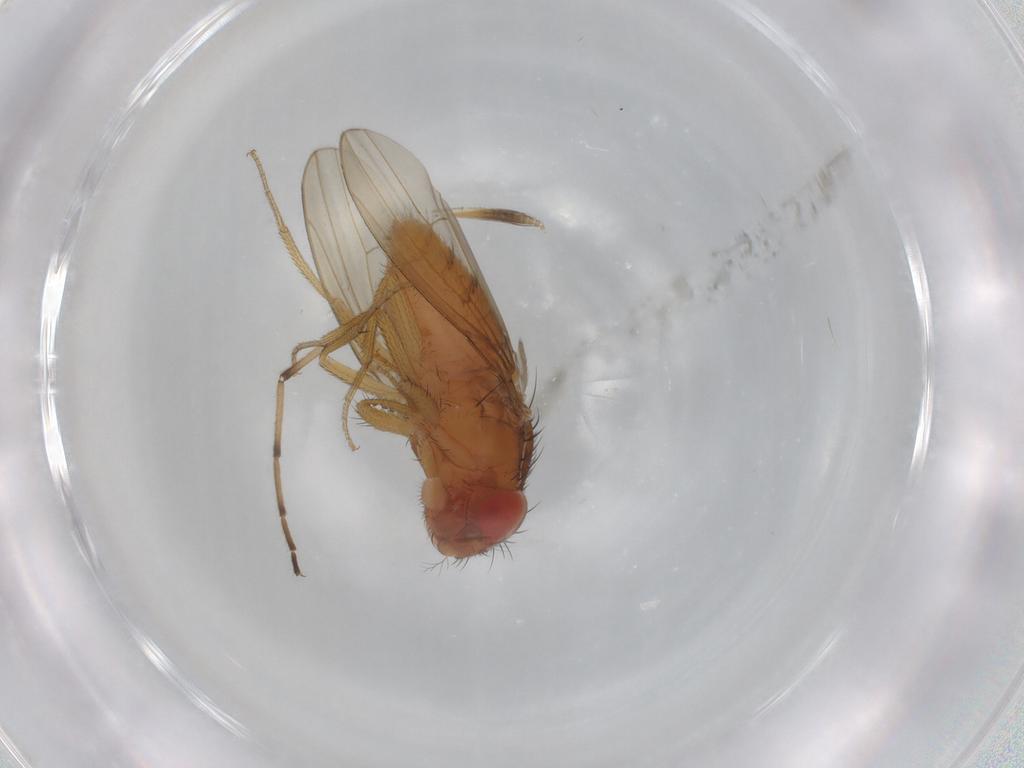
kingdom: Animalia
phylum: Arthropoda
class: Insecta
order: Diptera
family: Drosophilidae
